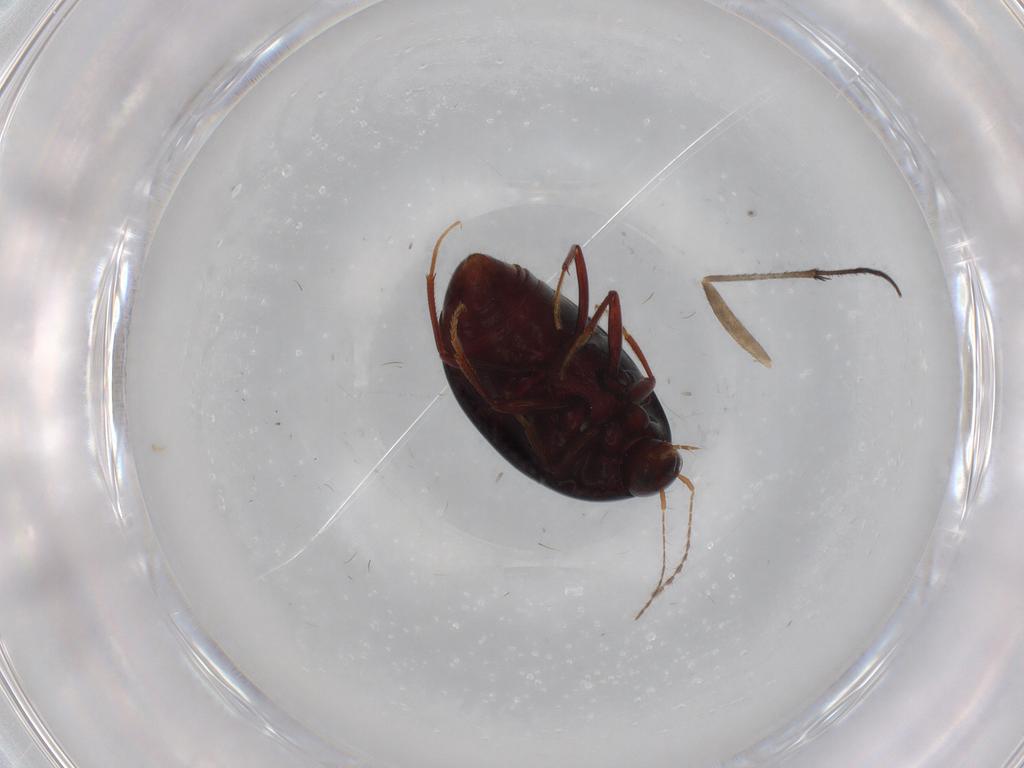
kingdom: Animalia
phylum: Arthropoda
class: Insecta
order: Coleoptera
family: Staphylinidae
